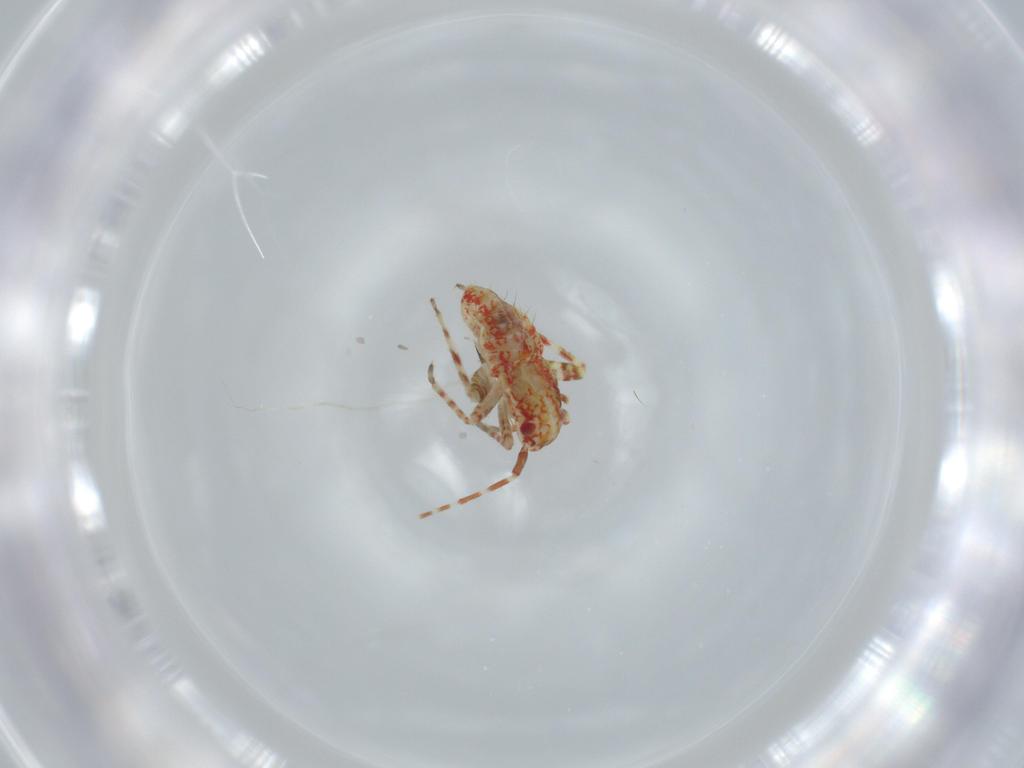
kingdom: Animalia
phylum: Arthropoda
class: Insecta
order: Hemiptera
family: Miridae
